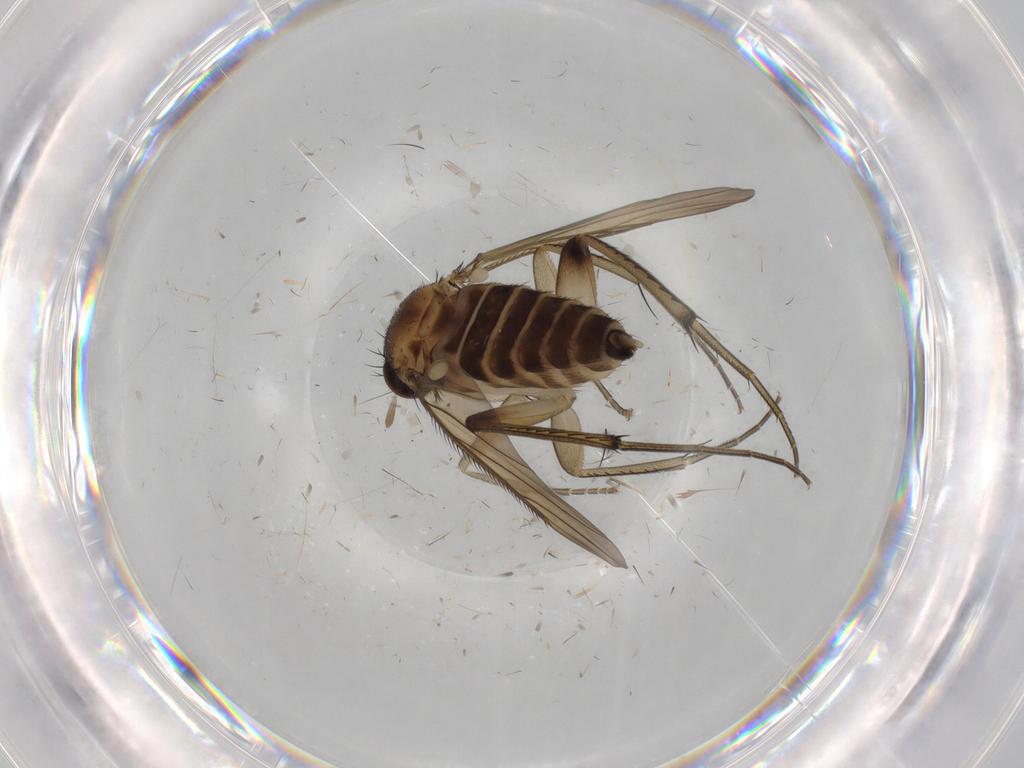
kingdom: Animalia
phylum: Arthropoda
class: Insecta
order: Diptera
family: Phoridae
